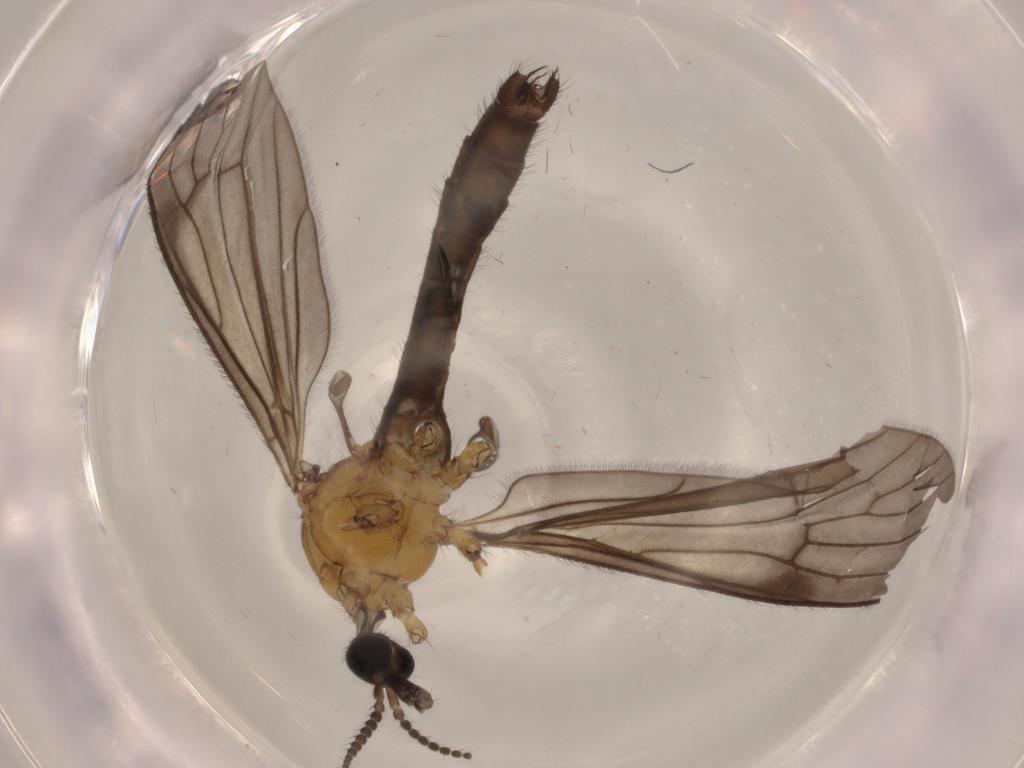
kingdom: Animalia
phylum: Arthropoda
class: Insecta
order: Diptera
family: Limoniidae
